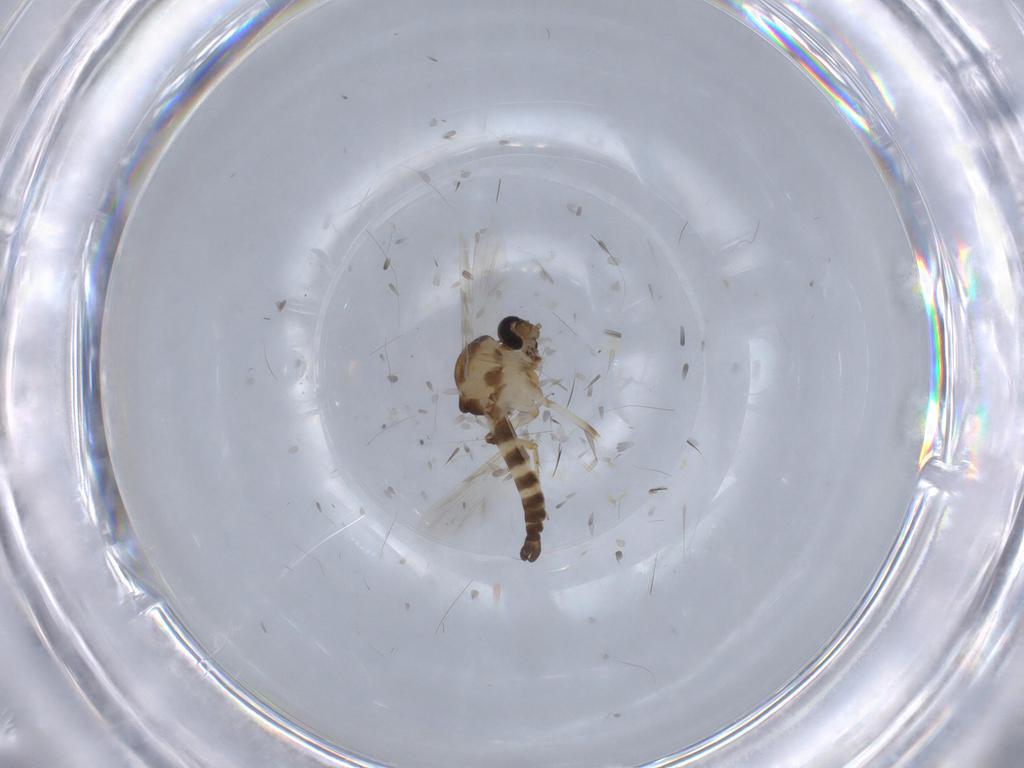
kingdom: Animalia
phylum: Arthropoda
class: Insecta
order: Diptera
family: Ceratopogonidae
